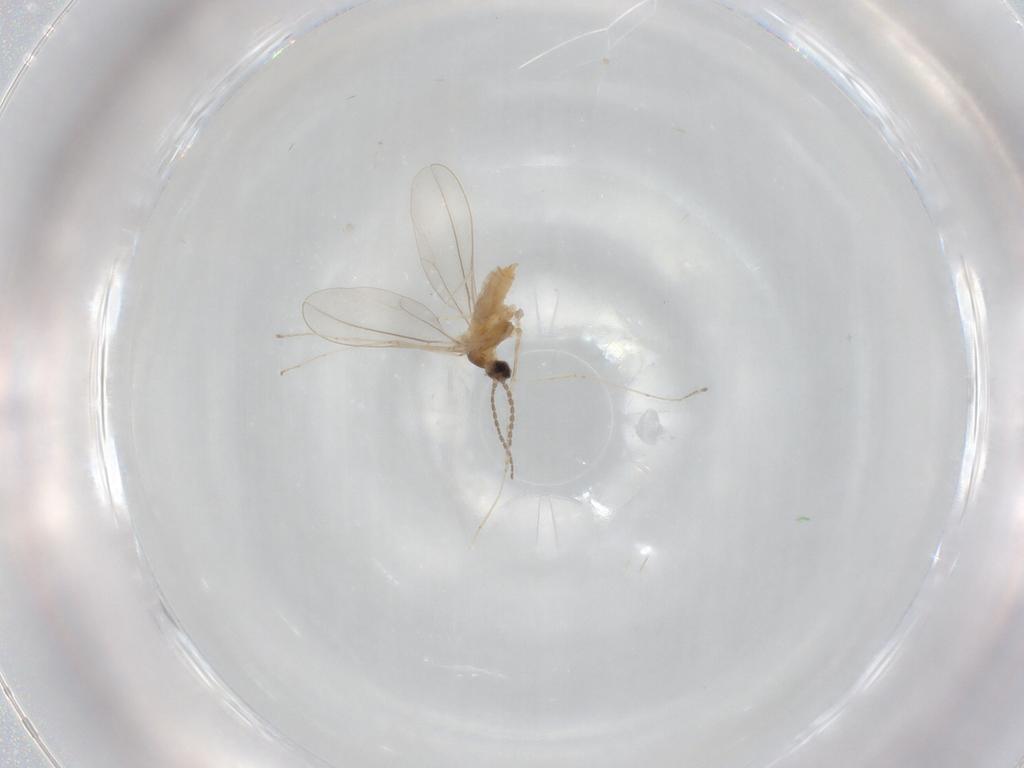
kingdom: Animalia
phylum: Arthropoda
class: Insecta
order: Diptera
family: Cecidomyiidae
